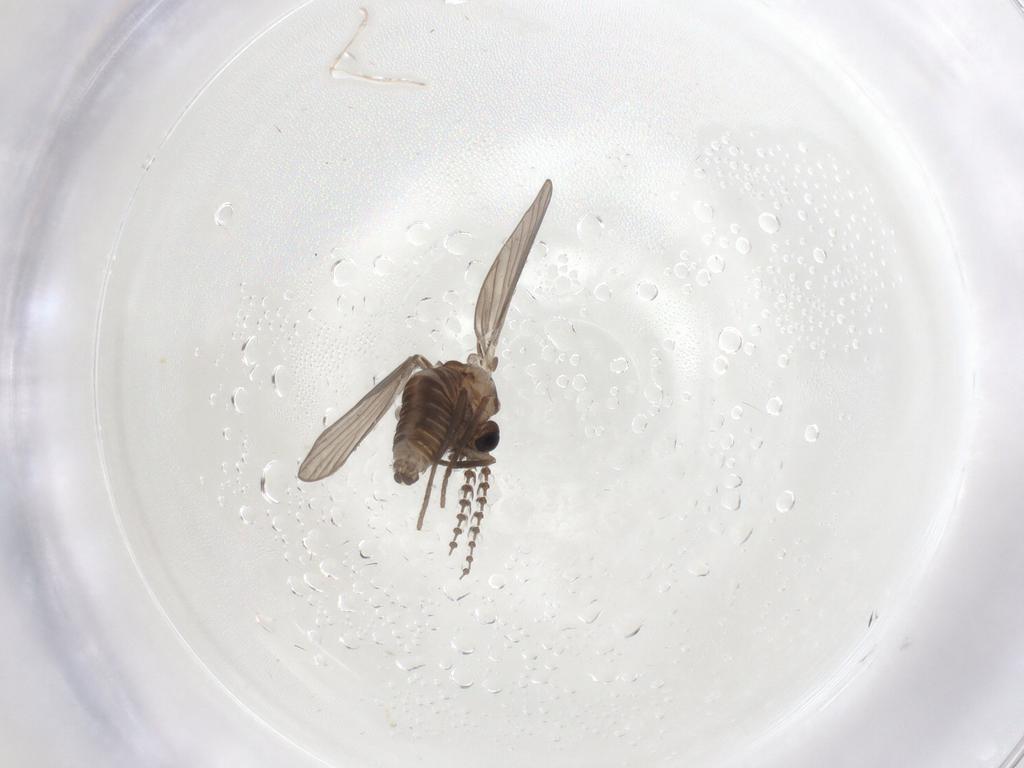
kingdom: Animalia
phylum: Arthropoda
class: Insecta
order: Diptera
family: Psychodidae
